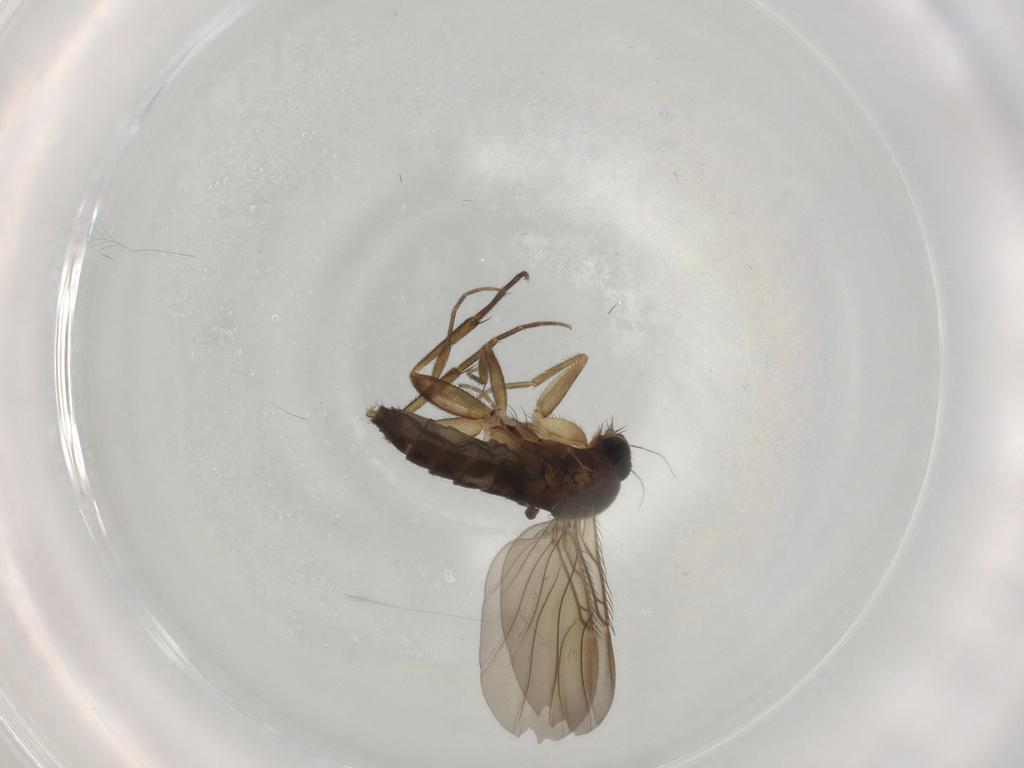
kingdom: Animalia
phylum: Arthropoda
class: Insecta
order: Diptera
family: Phoridae
